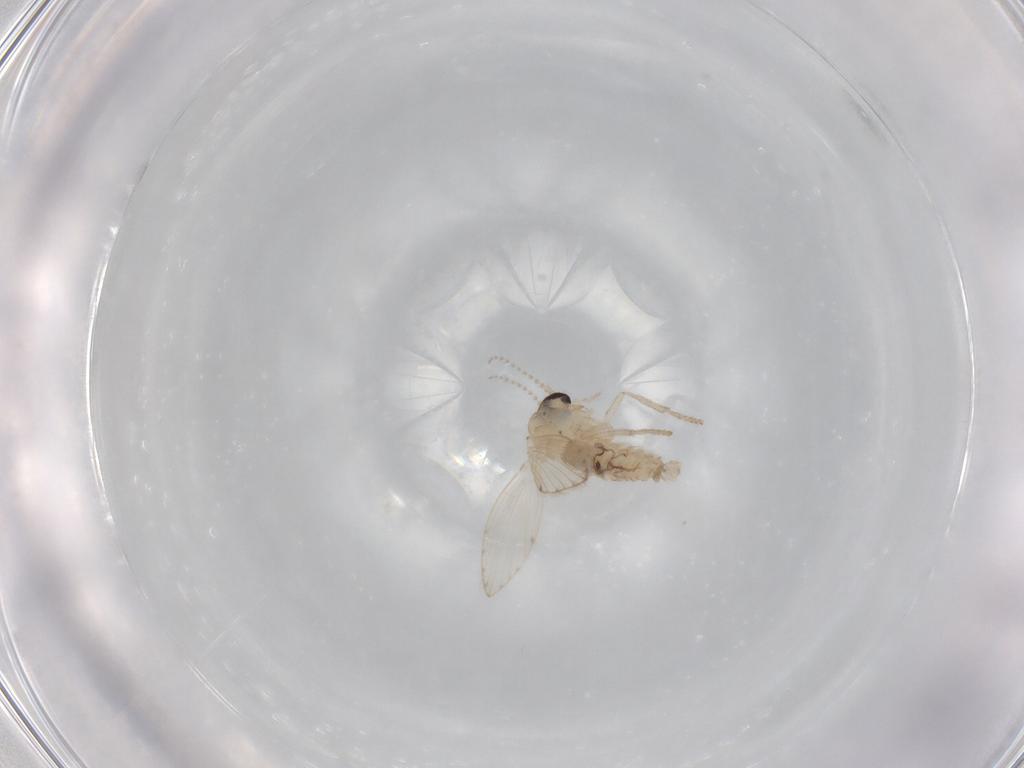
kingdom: Animalia
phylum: Arthropoda
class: Insecta
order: Diptera
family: Psychodidae
